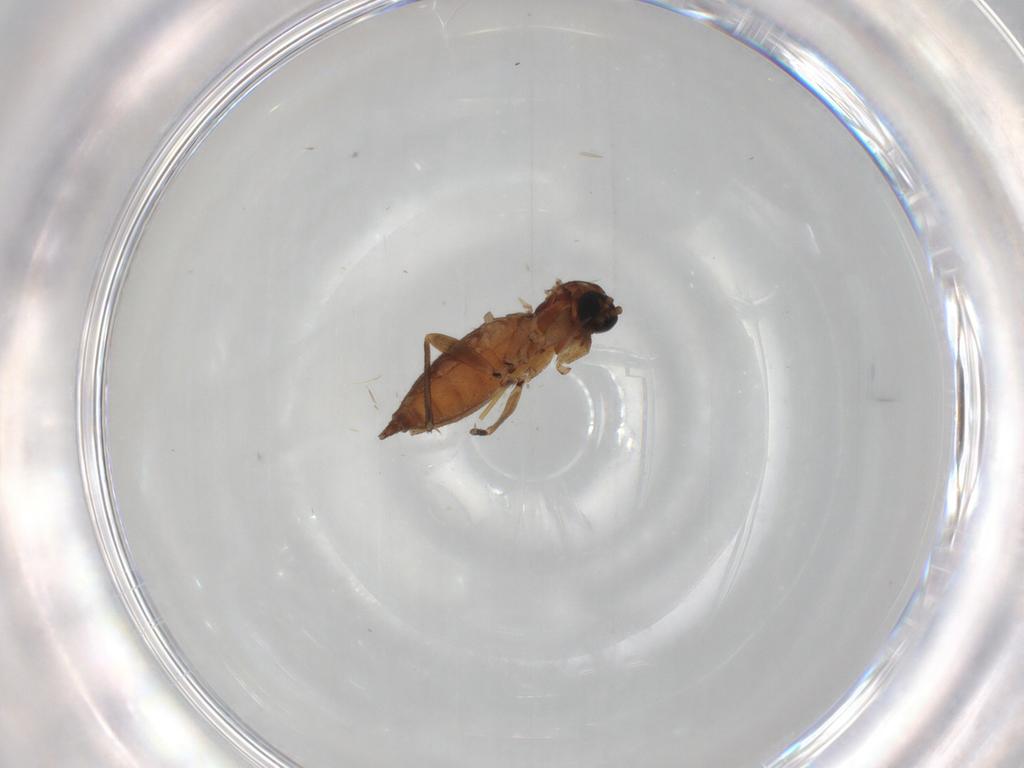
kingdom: Animalia
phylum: Arthropoda
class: Insecta
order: Diptera
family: Sciaridae
